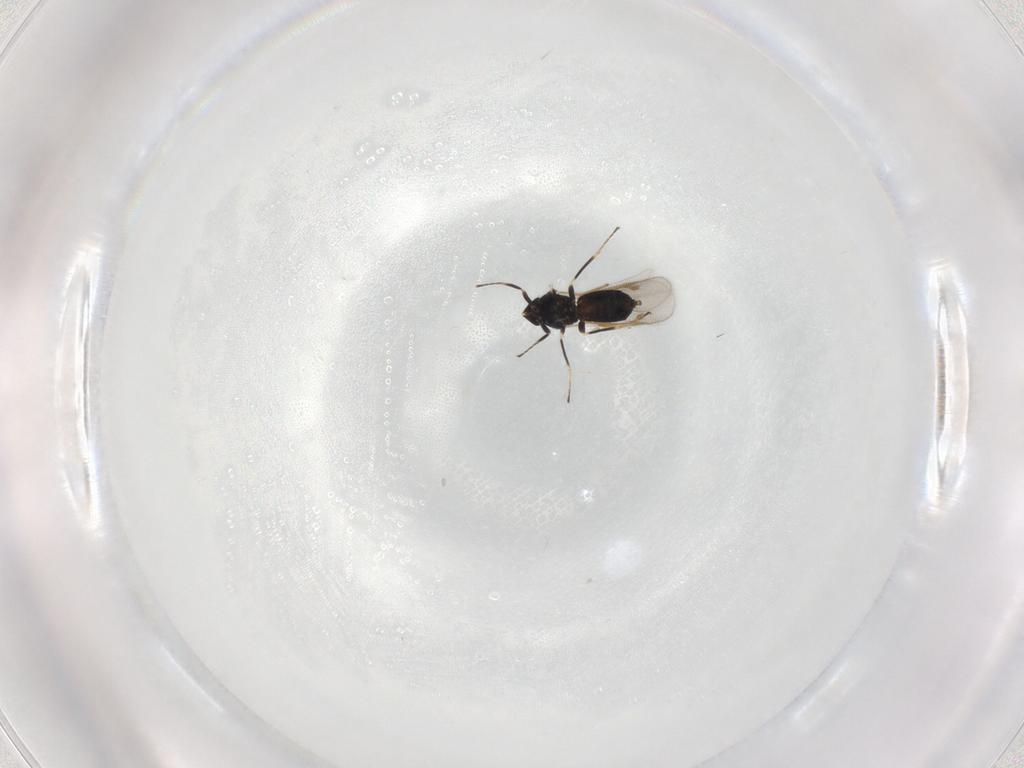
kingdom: Animalia
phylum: Arthropoda
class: Insecta
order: Hymenoptera
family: Eulophidae
